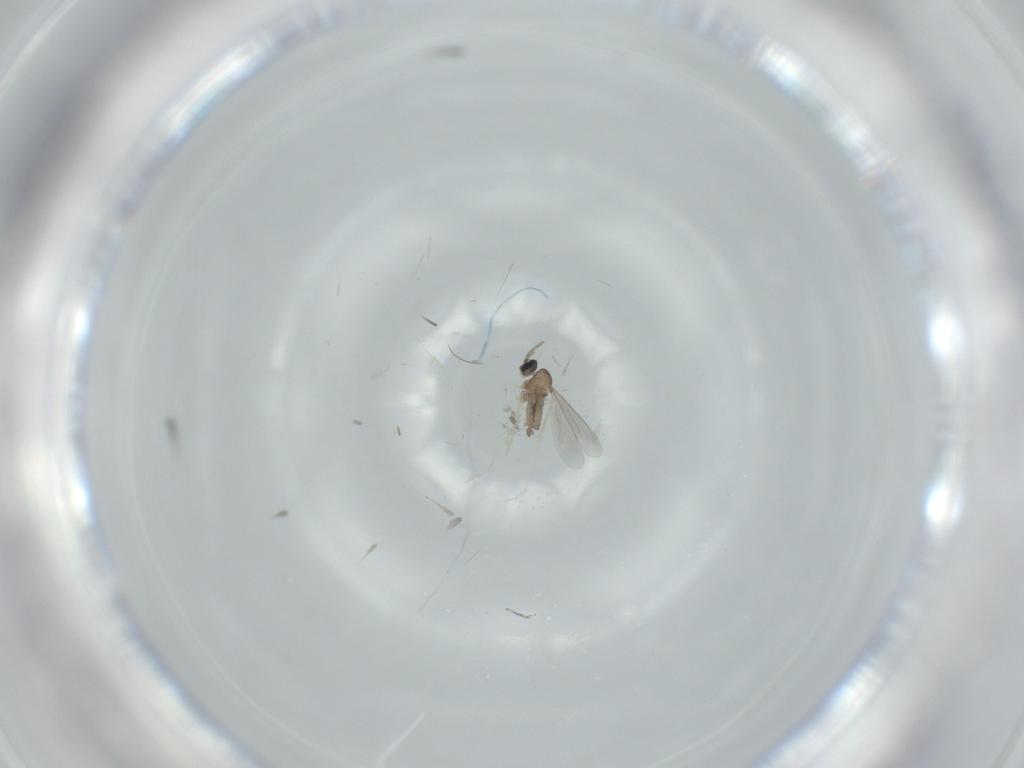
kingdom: Animalia
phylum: Arthropoda
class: Insecta
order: Diptera
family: Limoniidae
